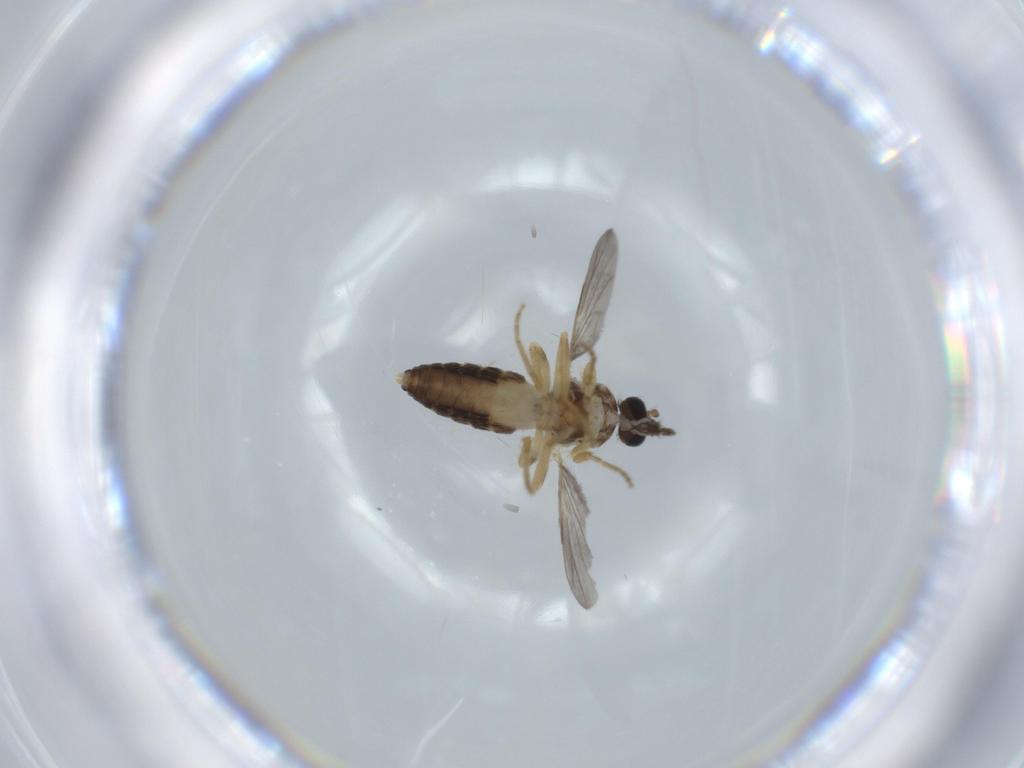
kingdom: Animalia
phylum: Arthropoda
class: Insecta
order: Diptera
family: Ceratopogonidae
